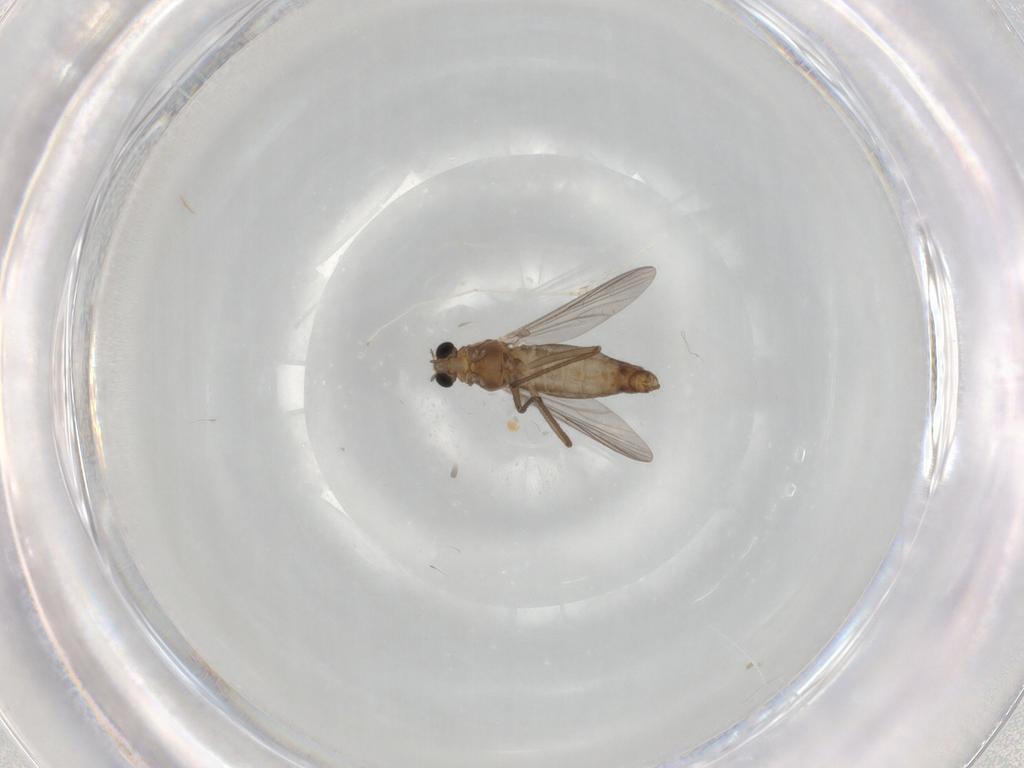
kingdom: Animalia
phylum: Arthropoda
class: Insecta
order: Diptera
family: Chironomidae
